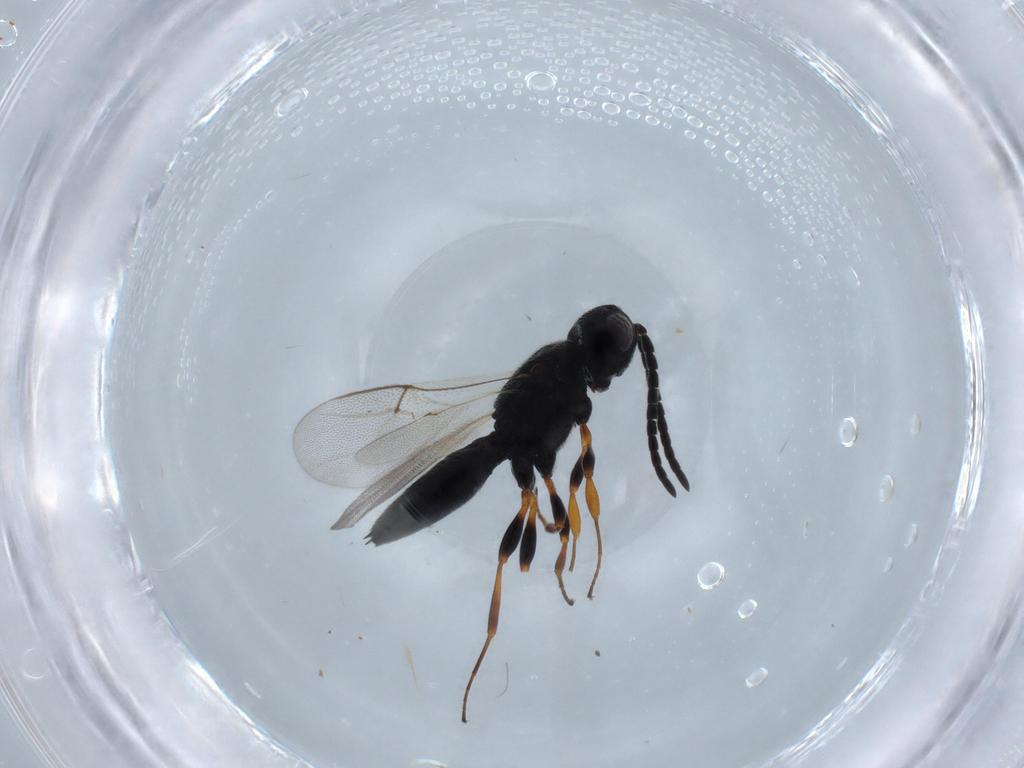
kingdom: Animalia
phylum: Arthropoda
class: Insecta
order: Hymenoptera
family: Scelionidae
